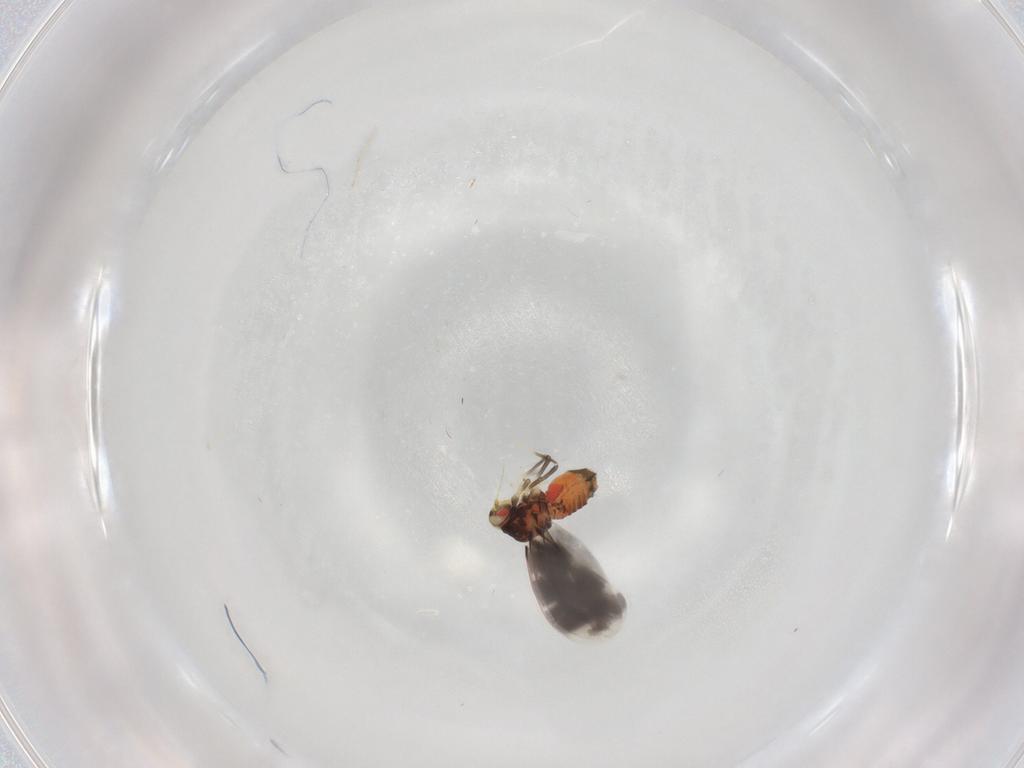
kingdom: Animalia
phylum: Arthropoda
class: Insecta
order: Hemiptera
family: Aleyrodidae
